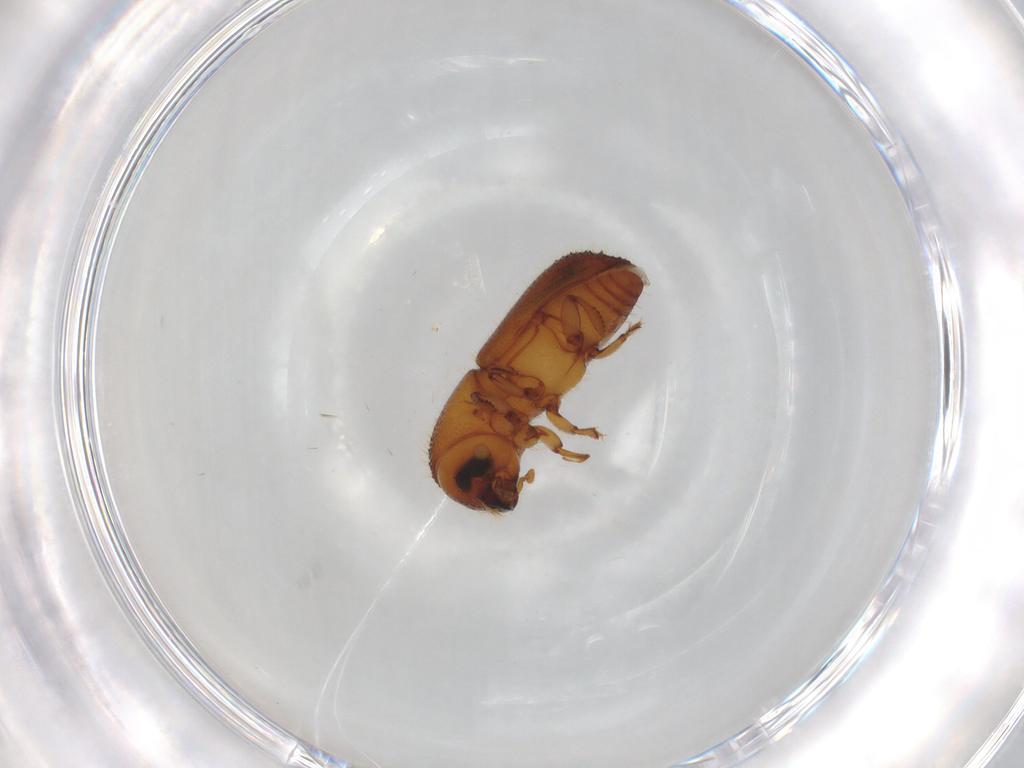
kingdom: Animalia
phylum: Arthropoda
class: Insecta
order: Coleoptera
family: Curculionidae
